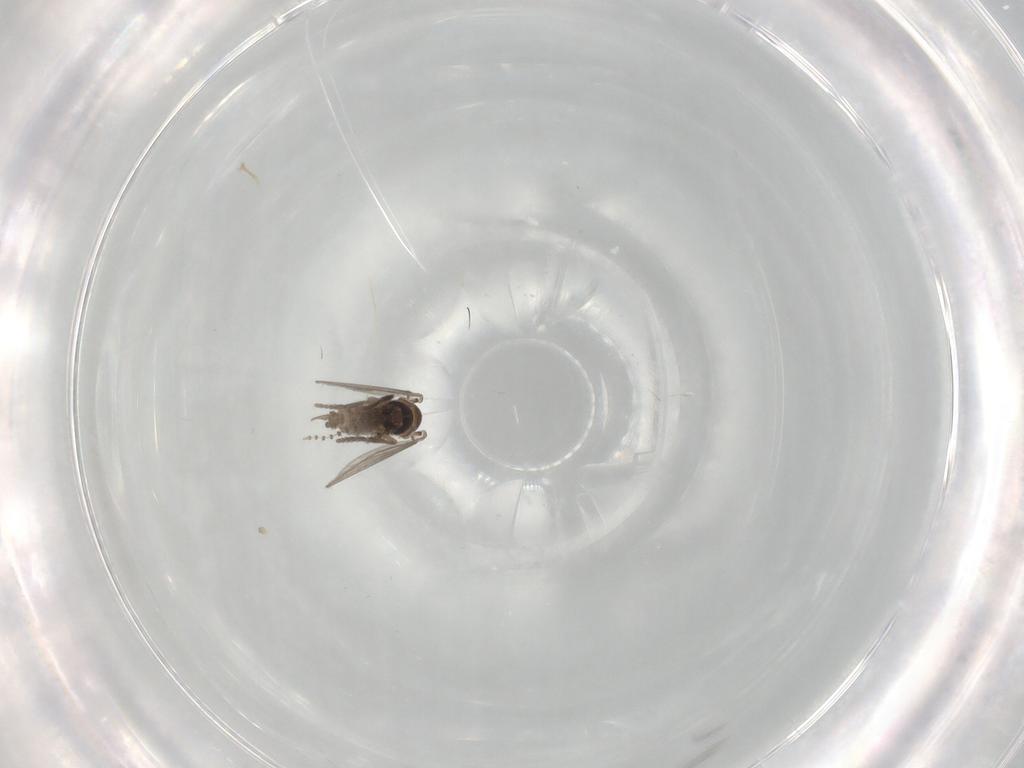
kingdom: Animalia
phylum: Arthropoda
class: Insecta
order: Diptera
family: Psychodidae
